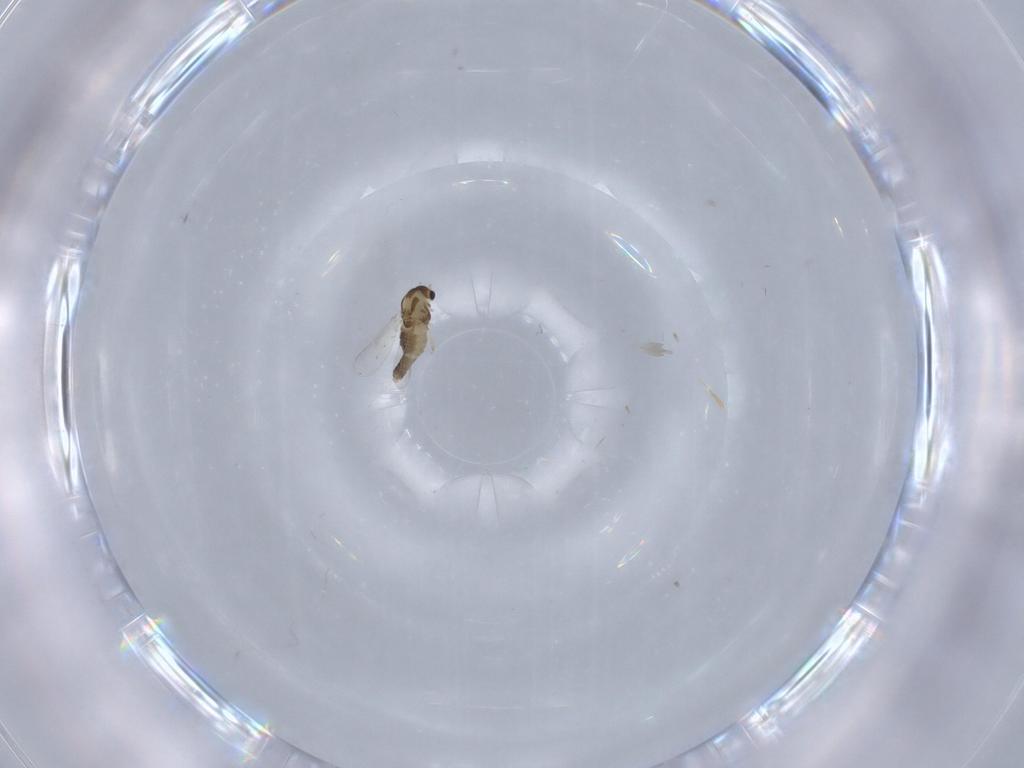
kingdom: Animalia
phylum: Arthropoda
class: Insecta
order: Diptera
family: Chironomidae
